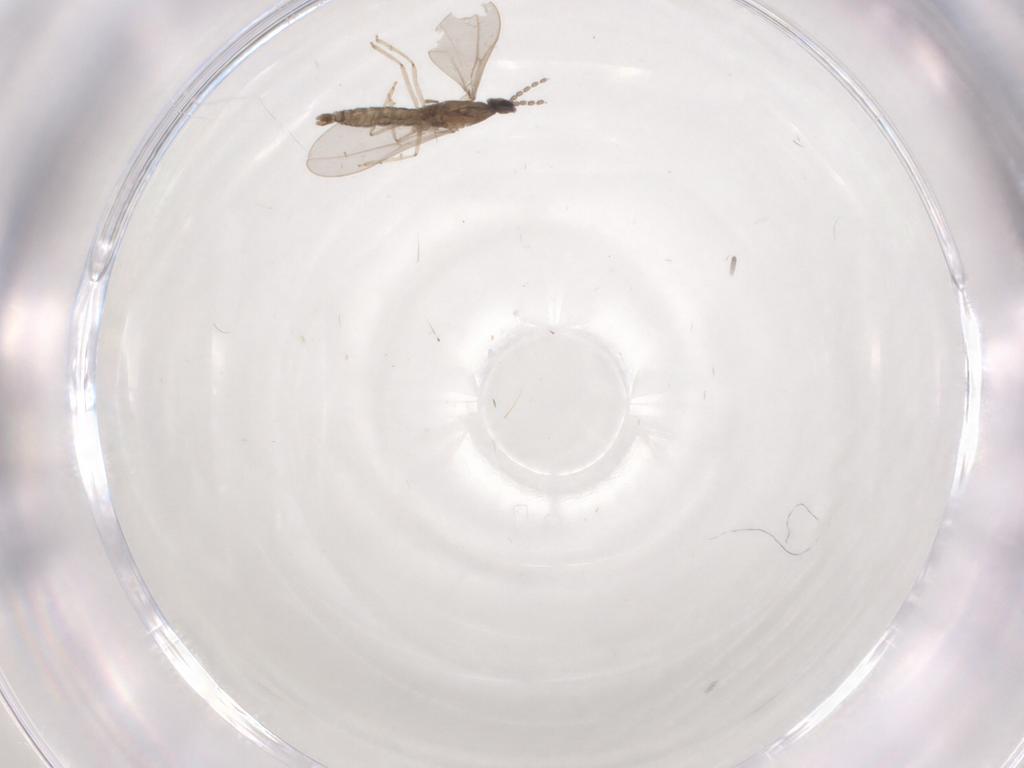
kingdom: Animalia
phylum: Arthropoda
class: Insecta
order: Diptera
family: Cecidomyiidae
